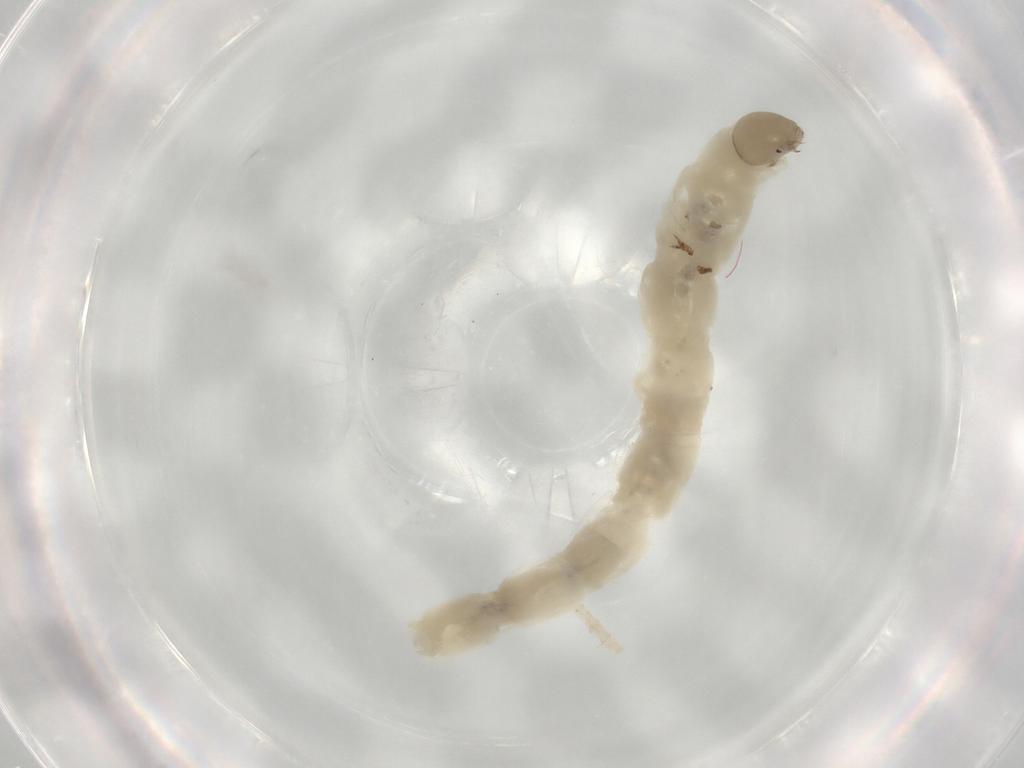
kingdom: Animalia
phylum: Arthropoda
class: Insecta
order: Diptera
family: Chironomidae
